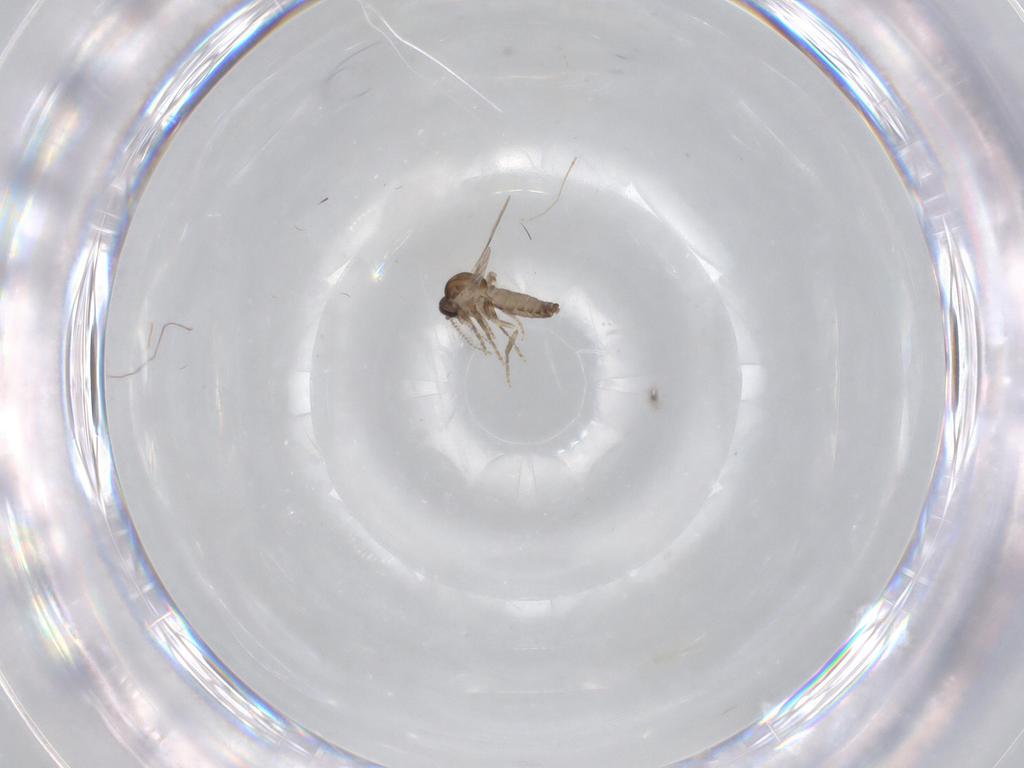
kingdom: Animalia
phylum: Arthropoda
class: Insecta
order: Diptera
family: Ceratopogonidae
